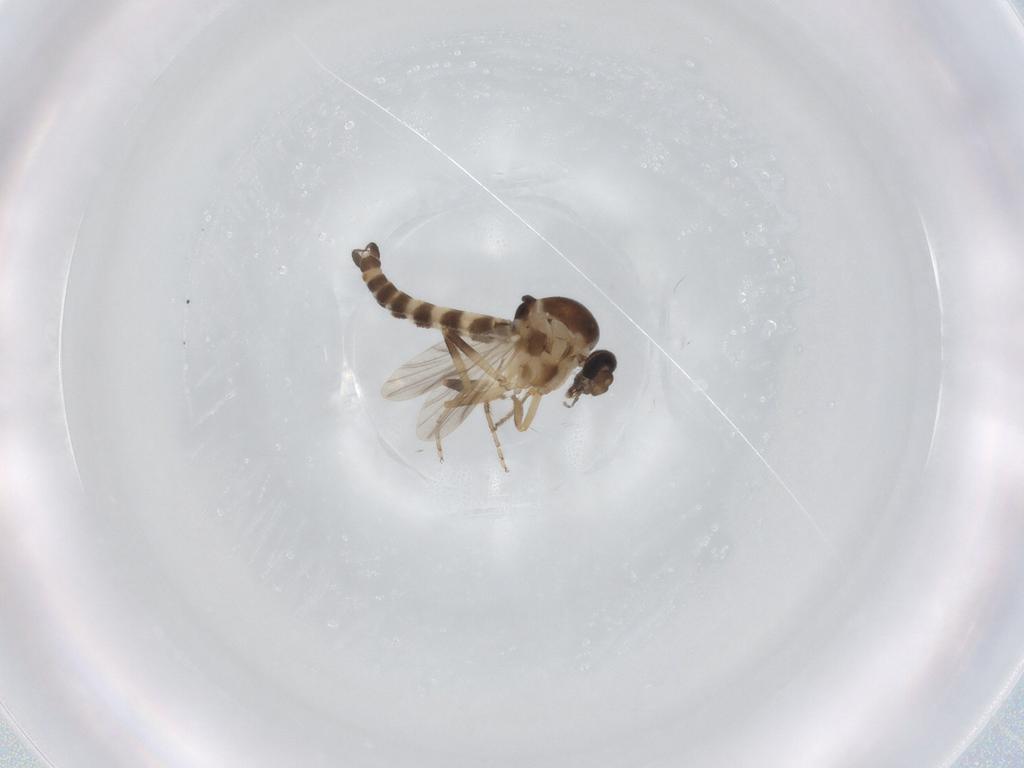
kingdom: Animalia
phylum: Arthropoda
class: Insecta
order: Diptera
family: Ceratopogonidae
